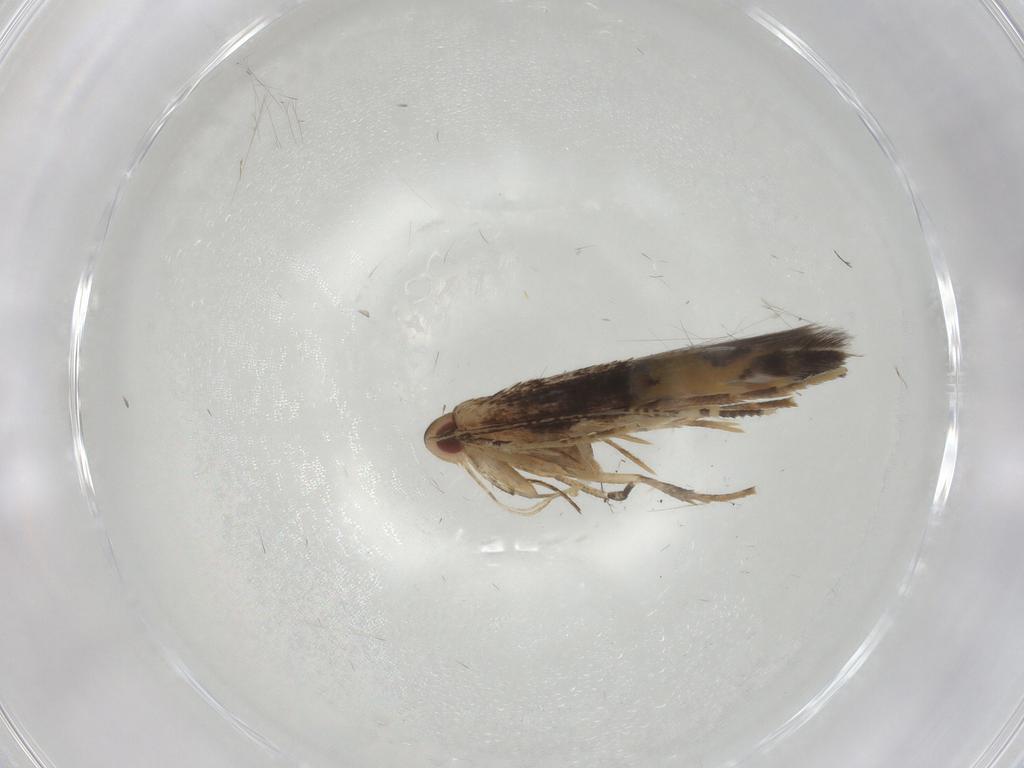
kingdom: Animalia
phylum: Arthropoda
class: Insecta
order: Lepidoptera
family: Cosmopterigidae
